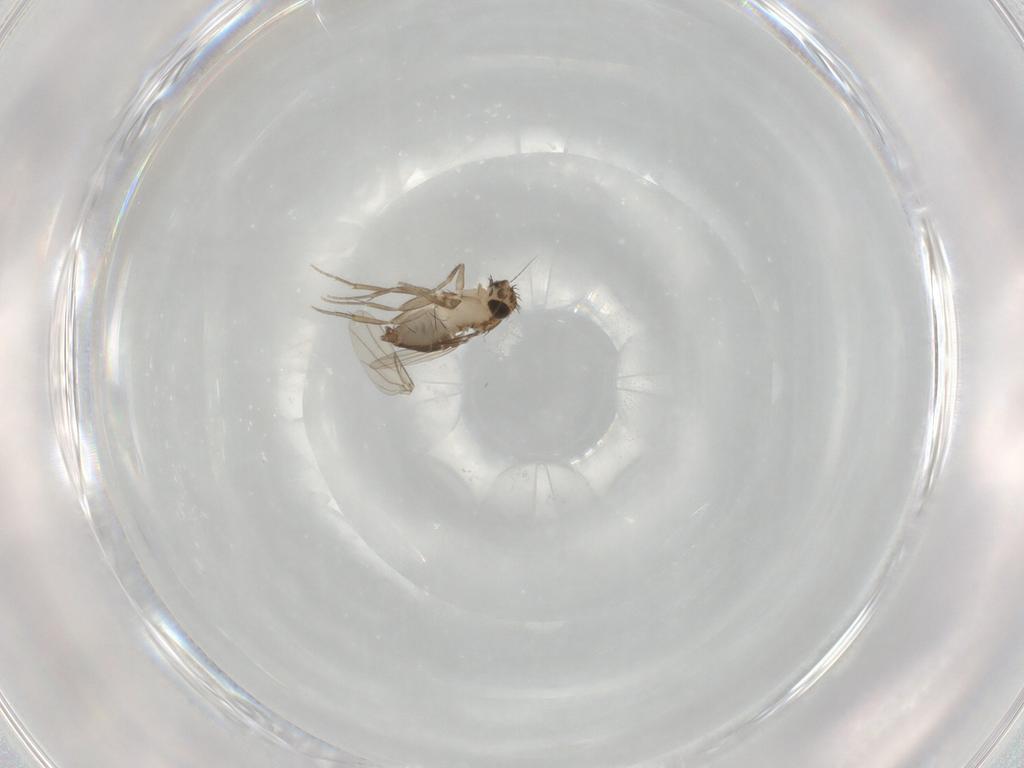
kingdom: Animalia
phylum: Arthropoda
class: Insecta
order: Diptera
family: Phoridae
